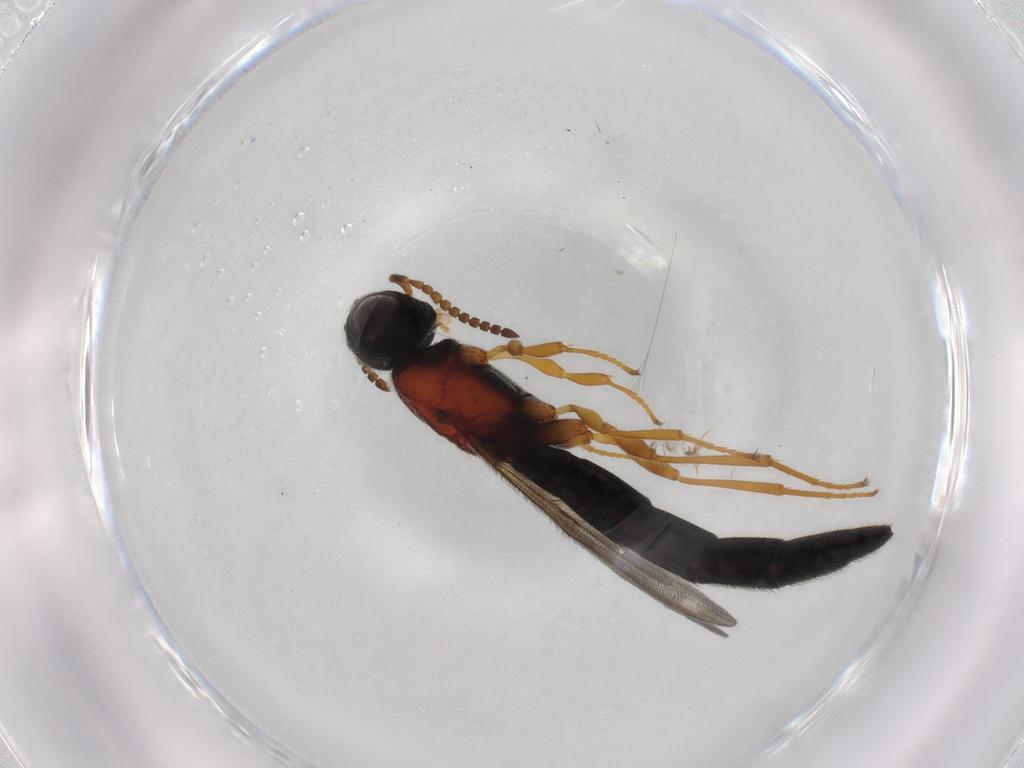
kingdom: Animalia
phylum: Arthropoda
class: Insecta
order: Hymenoptera
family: Scelionidae
